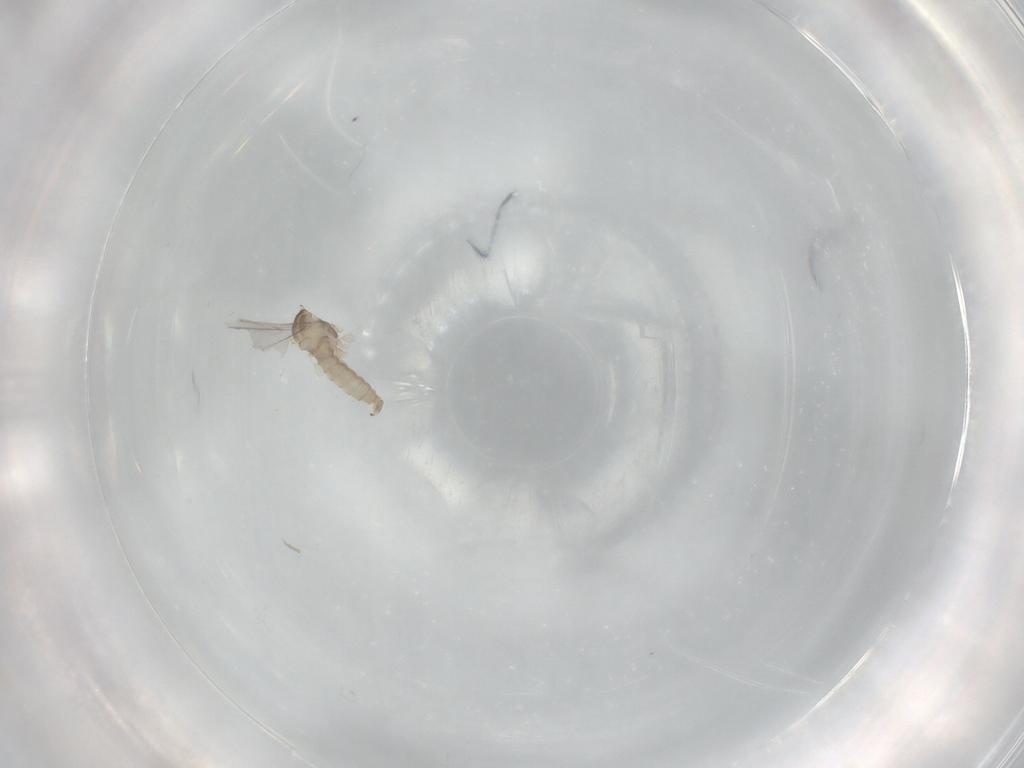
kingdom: Animalia
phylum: Arthropoda
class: Insecta
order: Diptera
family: Cecidomyiidae
